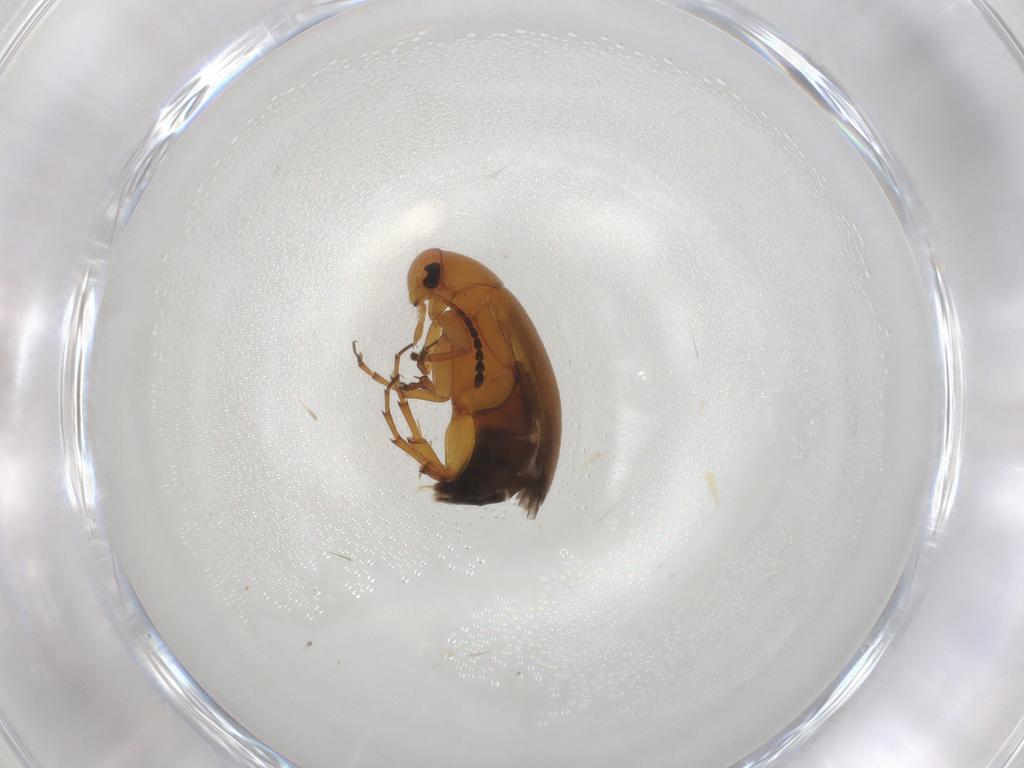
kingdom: Animalia
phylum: Arthropoda
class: Insecta
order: Coleoptera
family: Scraptiidae
